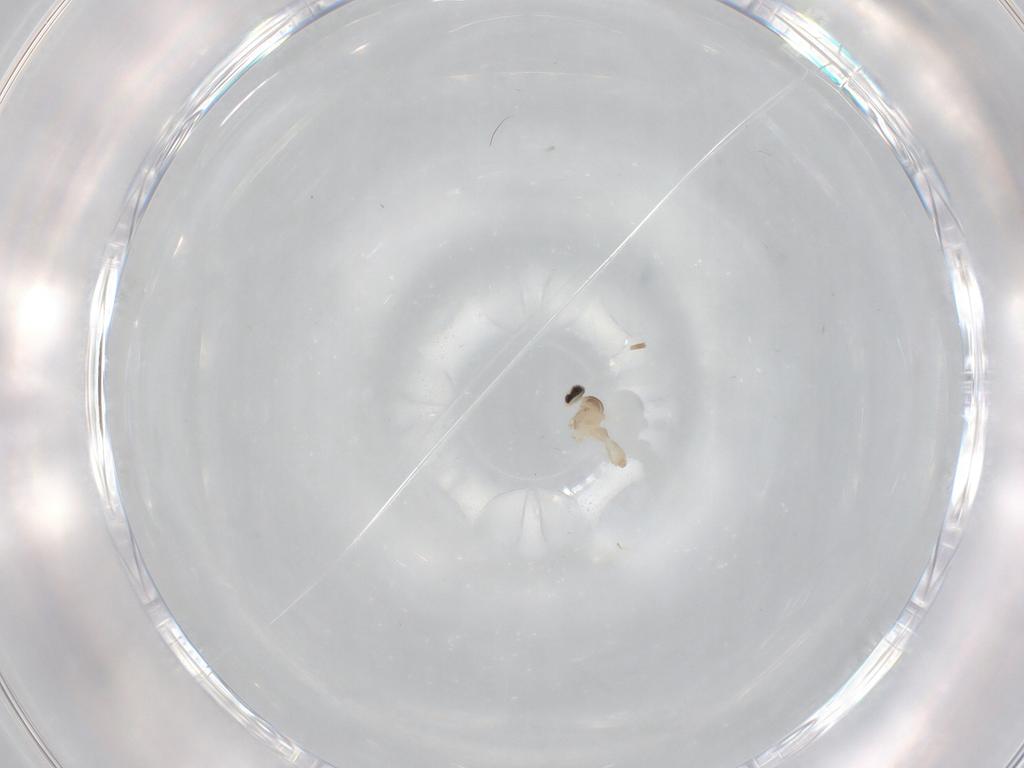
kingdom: Animalia
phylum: Arthropoda
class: Insecta
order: Diptera
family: Cecidomyiidae
